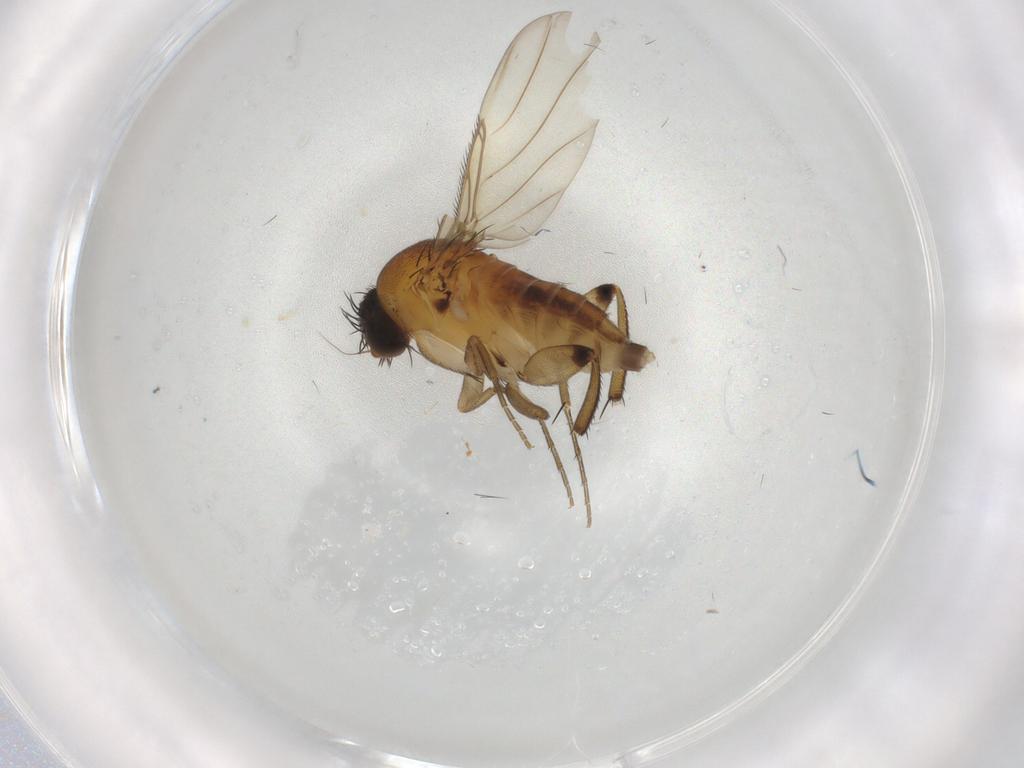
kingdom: Animalia
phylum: Arthropoda
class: Insecta
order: Diptera
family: Phoridae
